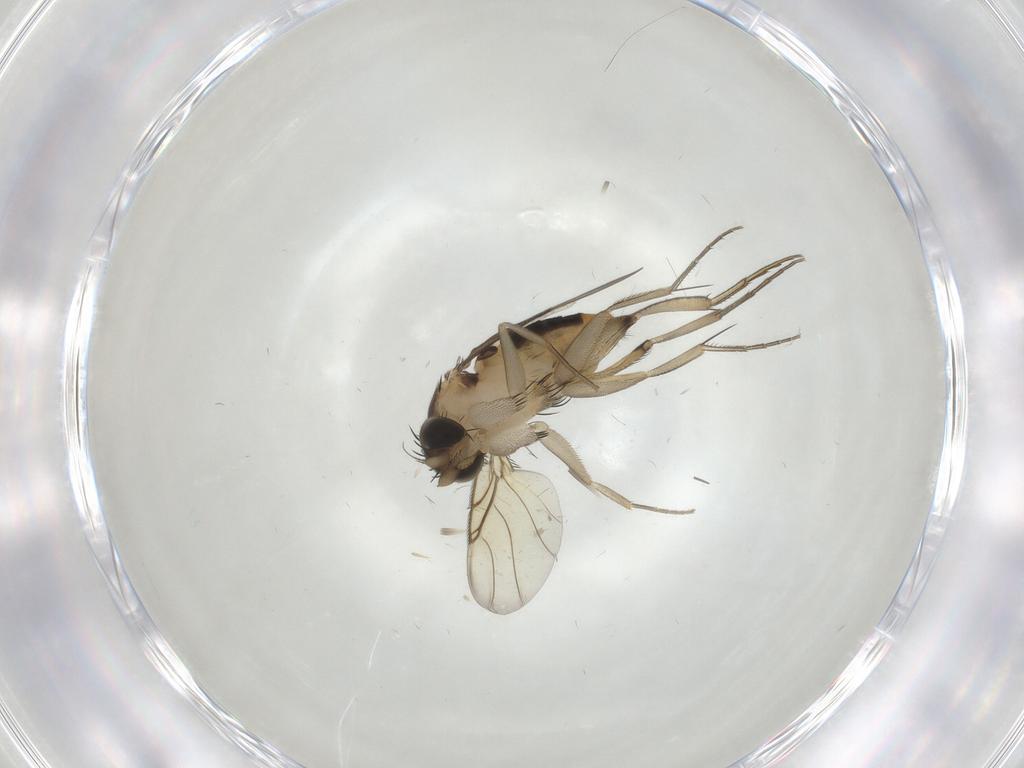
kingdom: Animalia
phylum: Arthropoda
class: Insecta
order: Diptera
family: Phoridae
